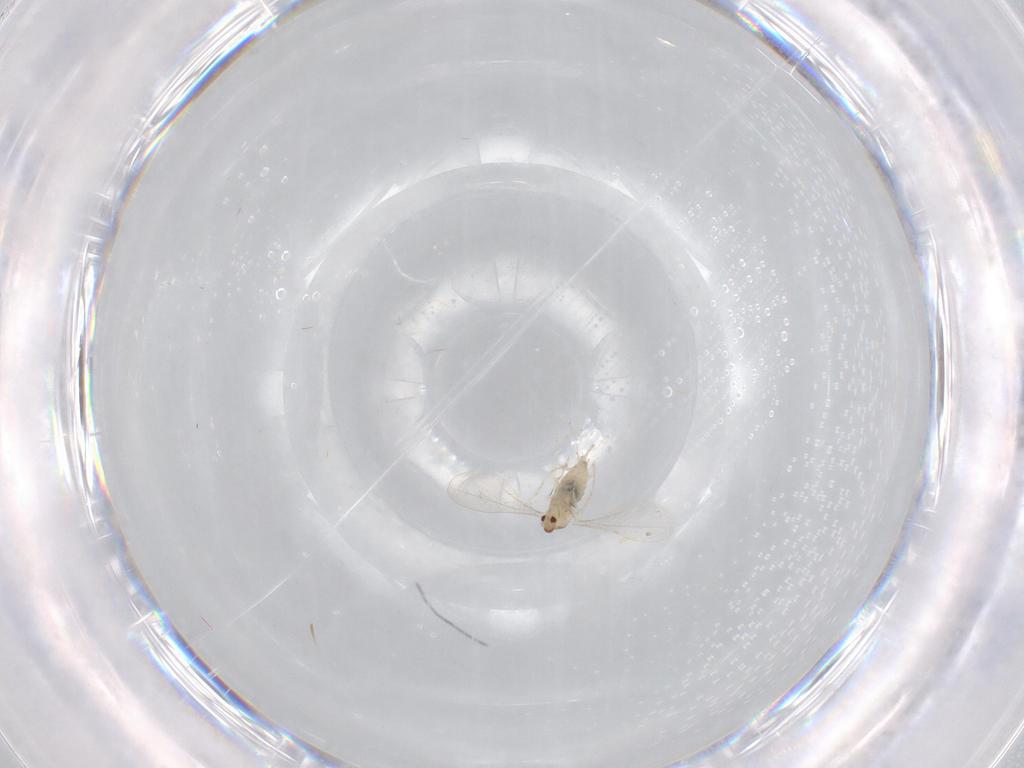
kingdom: Animalia
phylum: Arthropoda
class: Insecta
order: Diptera
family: Cecidomyiidae
